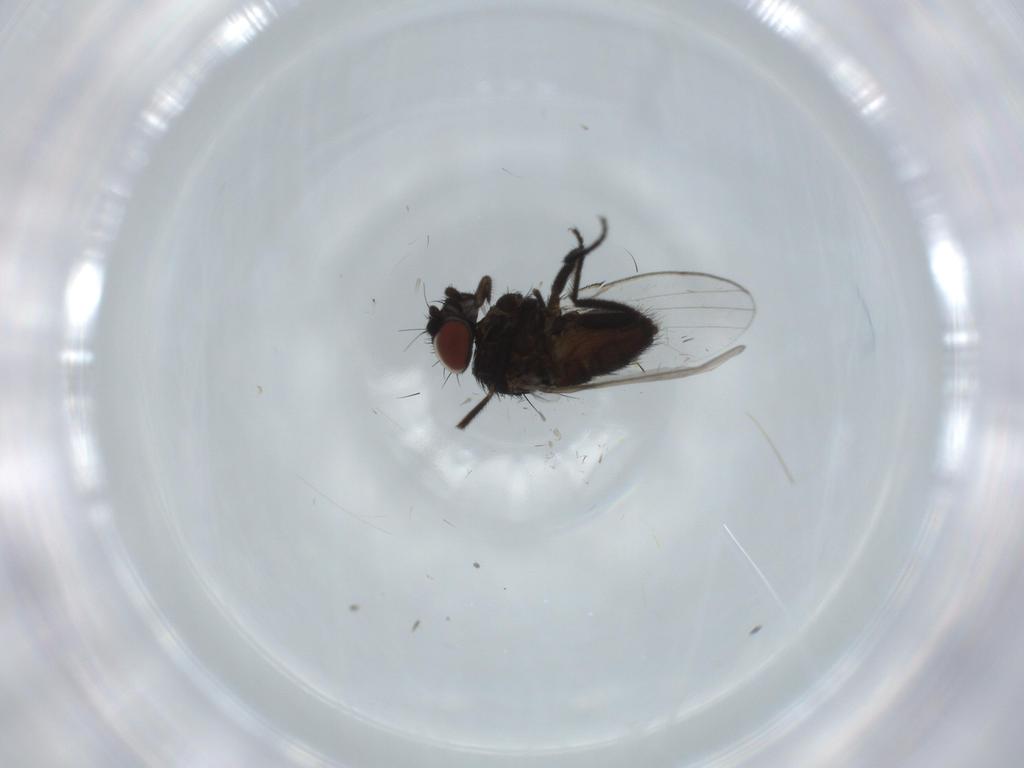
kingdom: Animalia
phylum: Arthropoda
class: Insecta
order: Diptera
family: Milichiidae
